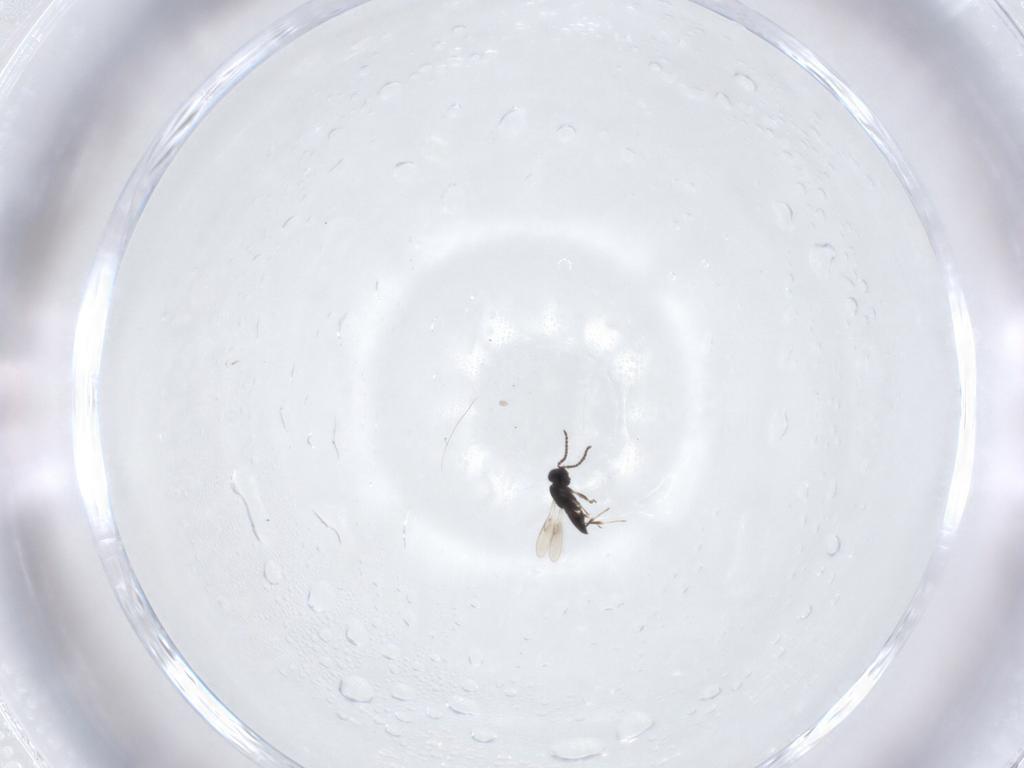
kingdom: Animalia
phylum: Arthropoda
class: Insecta
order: Hymenoptera
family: Scelionidae
